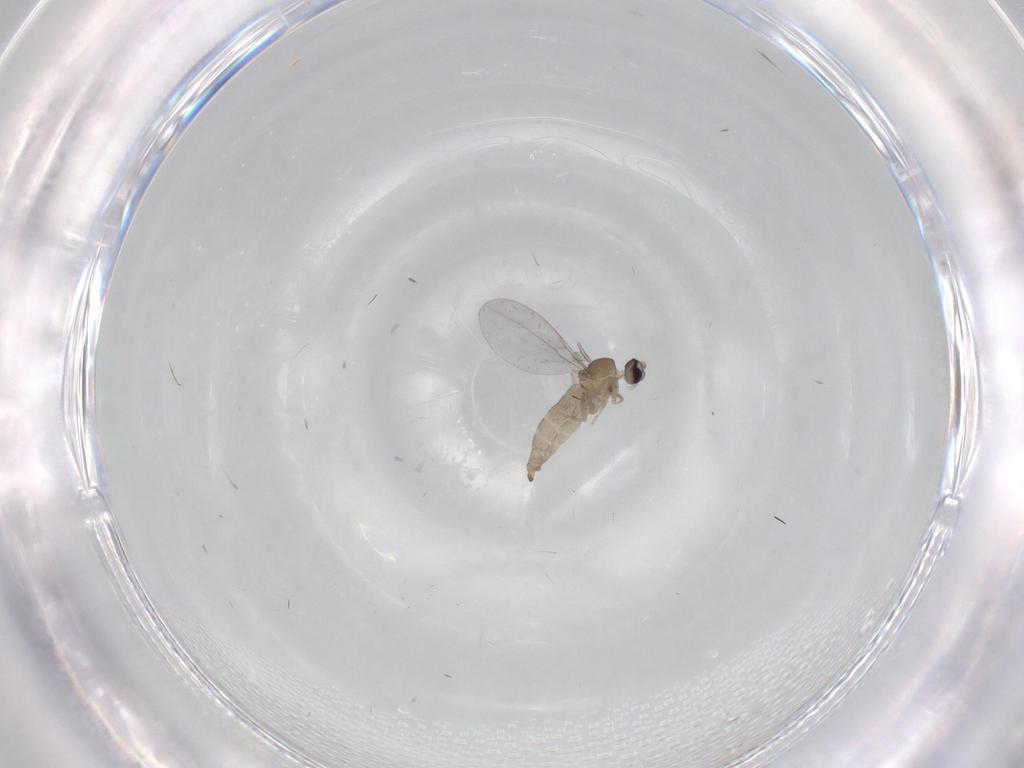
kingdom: Animalia
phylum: Arthropoda
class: Insecta
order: Diptera
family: Cecidomyiidae
